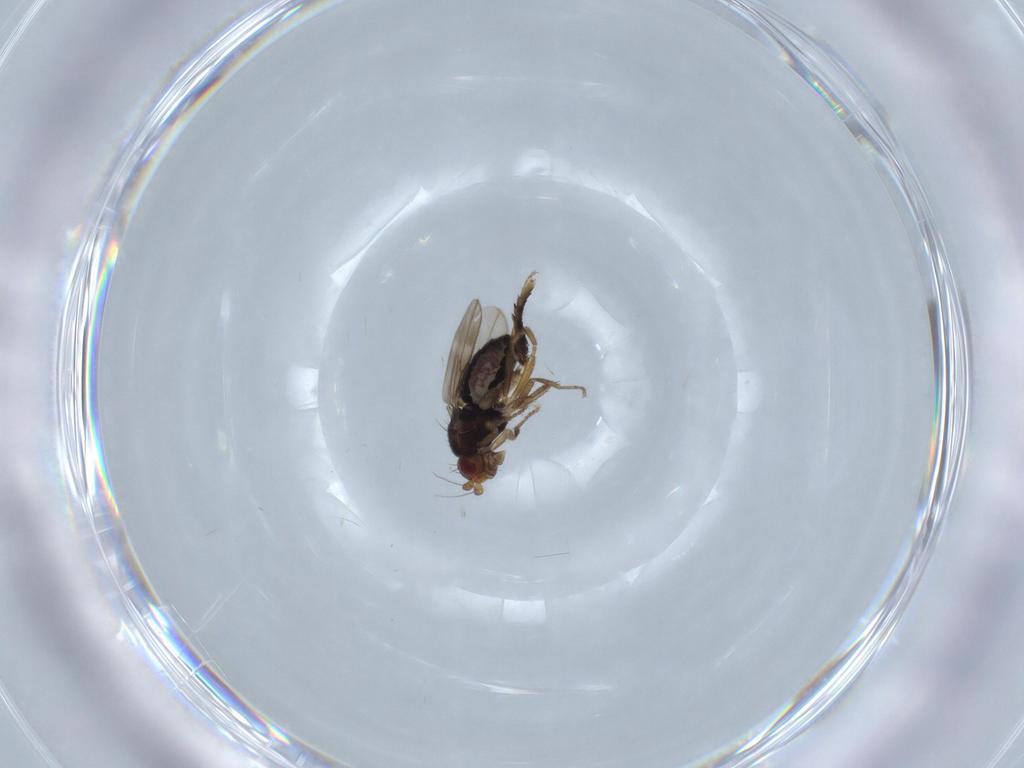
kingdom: Animalia
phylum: Arthropoda
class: Insecta
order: Diptera
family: Sphaeroceridae
